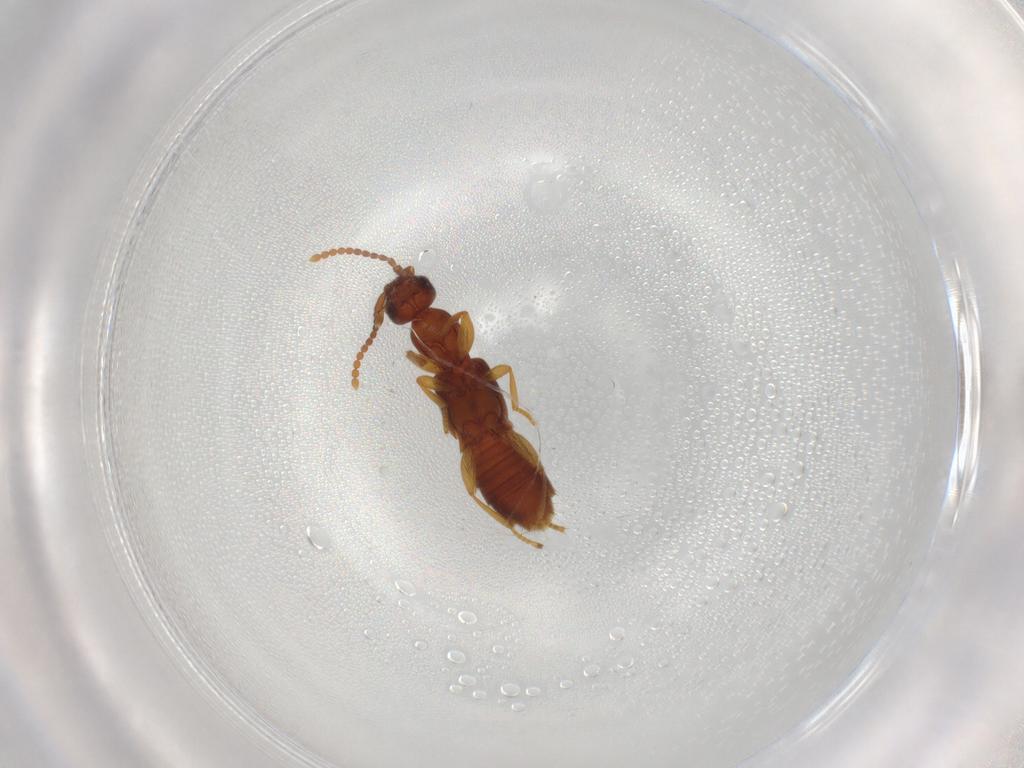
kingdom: Animalia
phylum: Arthropoda
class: Insecta
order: Coleoptera
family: Staphylinidae
